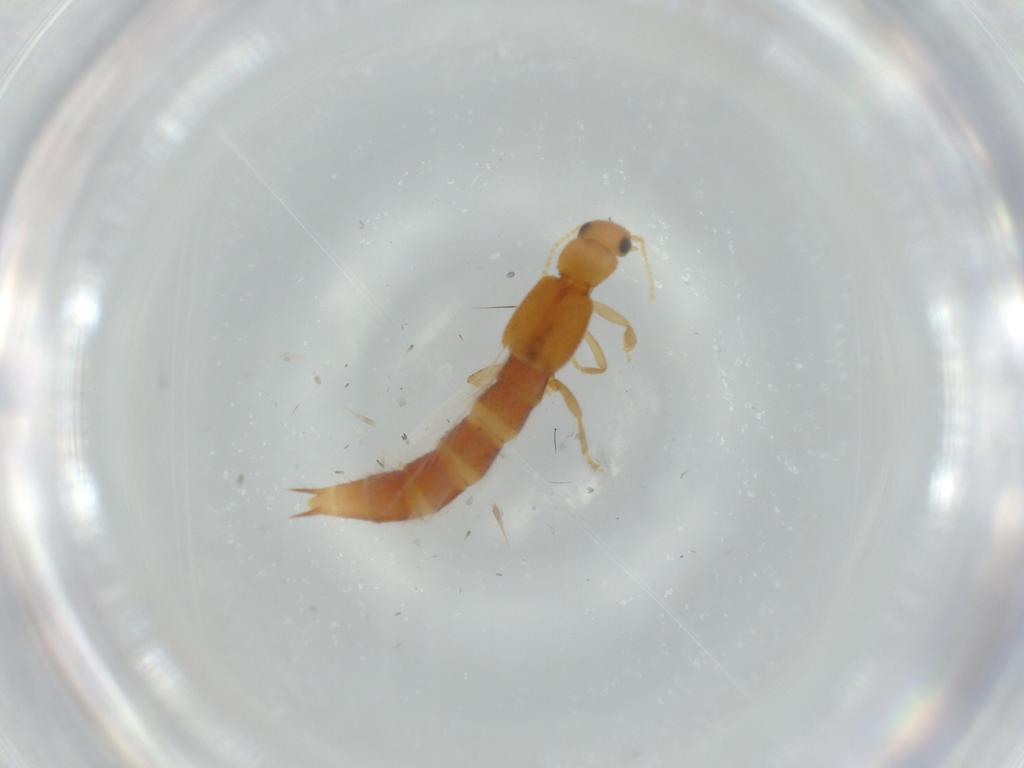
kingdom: Animalia
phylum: Arthropoda
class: Insecta
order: Coleoptera
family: Staphylinidae
